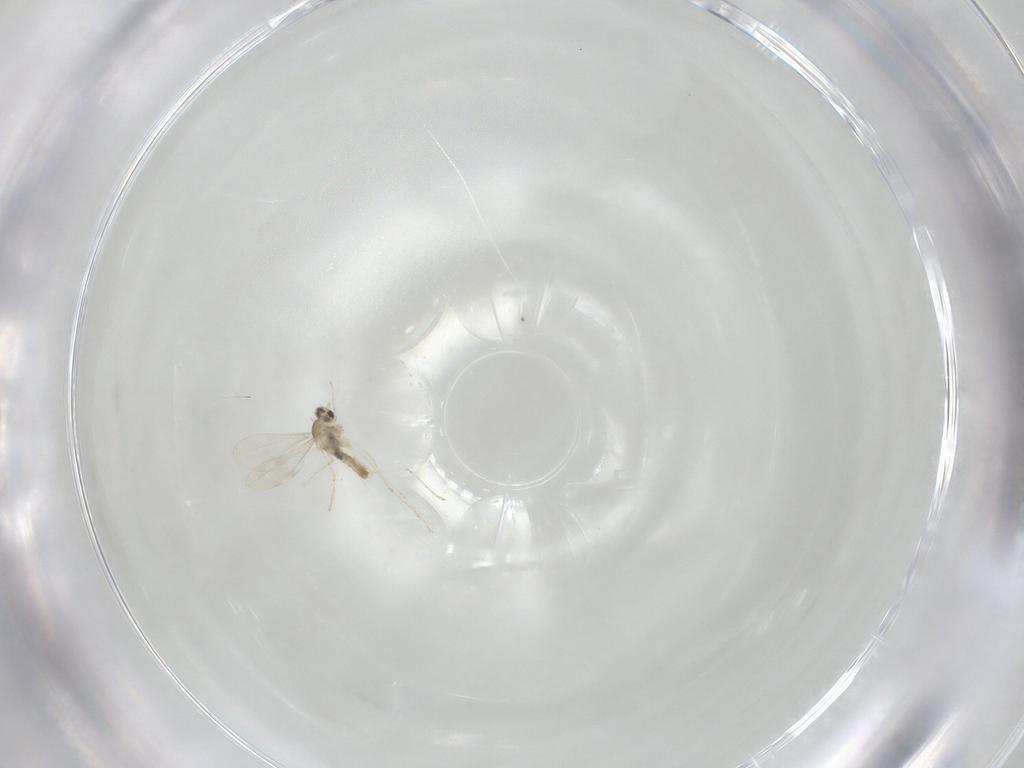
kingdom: Animalia
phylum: Arthropoda
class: Insecta
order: Diptera
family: Cecidomyiidae
